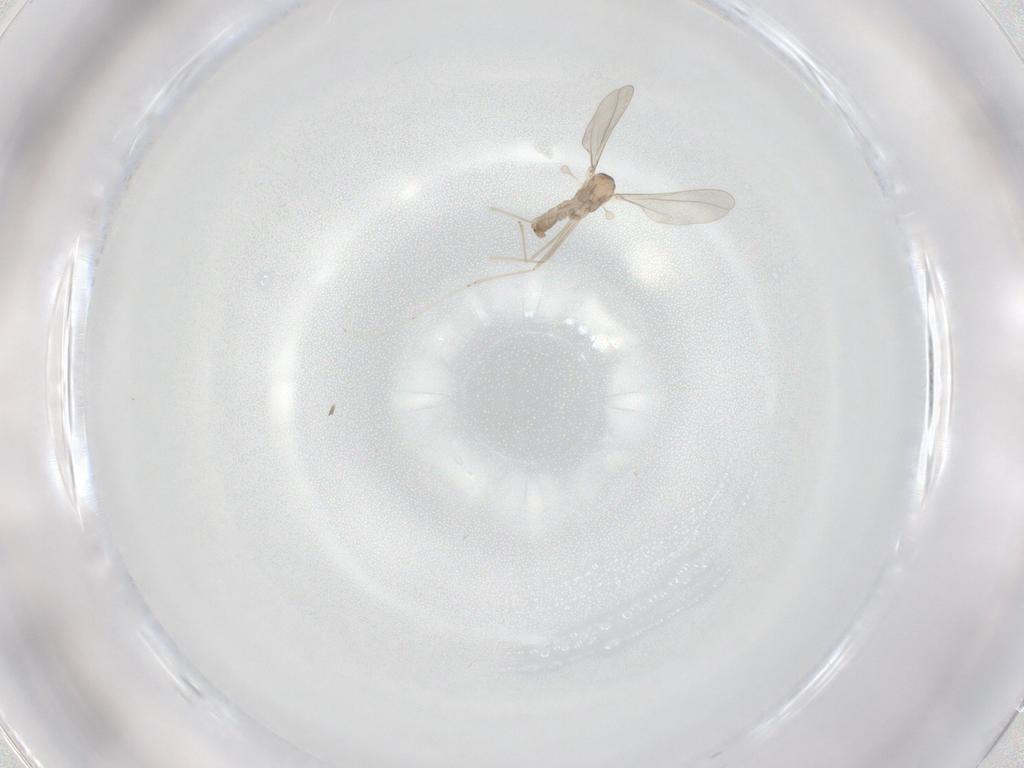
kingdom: Animalia
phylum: Arthropoda
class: Insecta
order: Diptera
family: Cecidomyiidae
